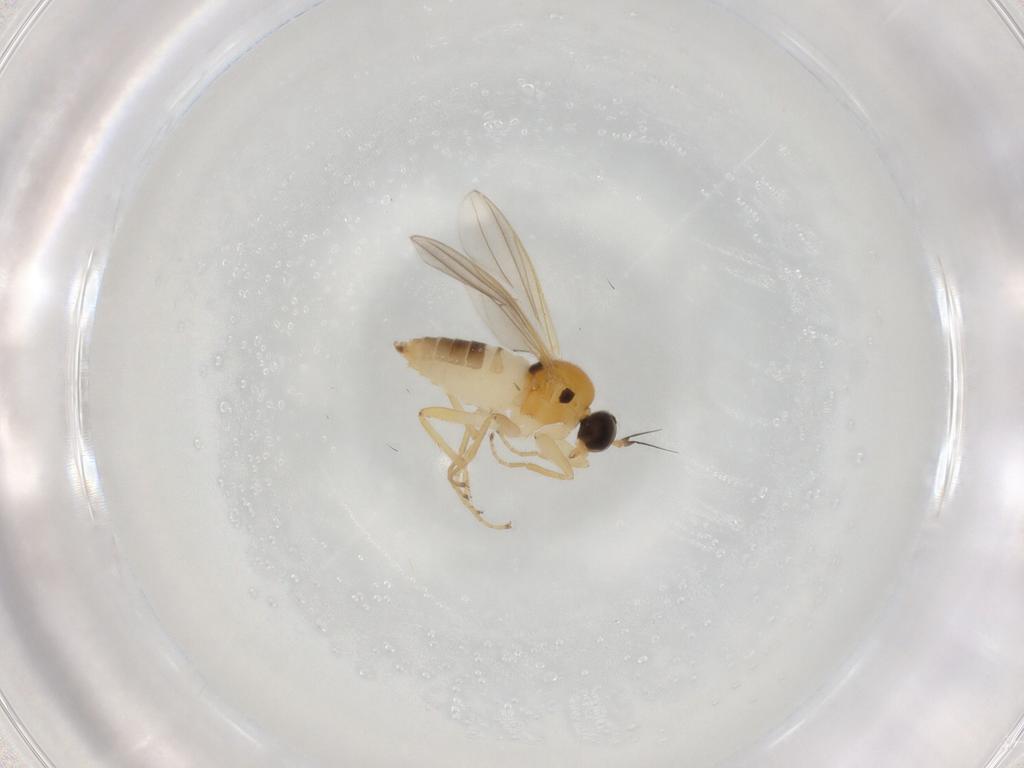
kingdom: Animalia
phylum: Arthropoda
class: Insecta
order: Diptera
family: Hybotidae
